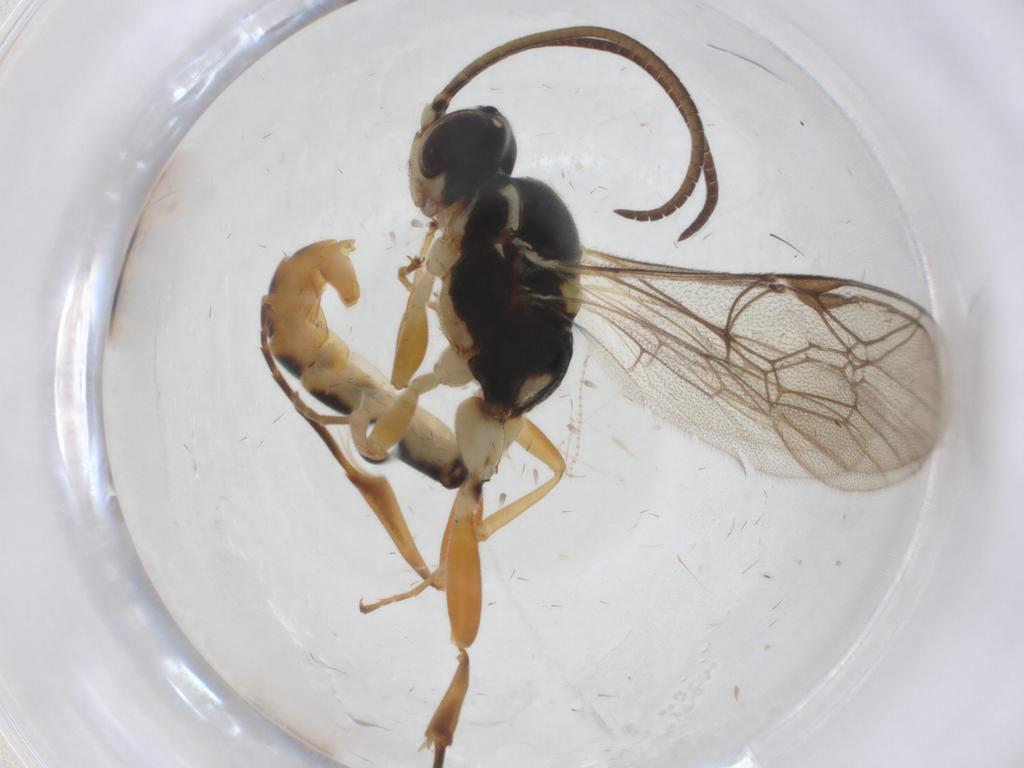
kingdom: Animalia
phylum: Arthropoda
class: Insecta
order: Hymenoptera
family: Ichneumonidae
